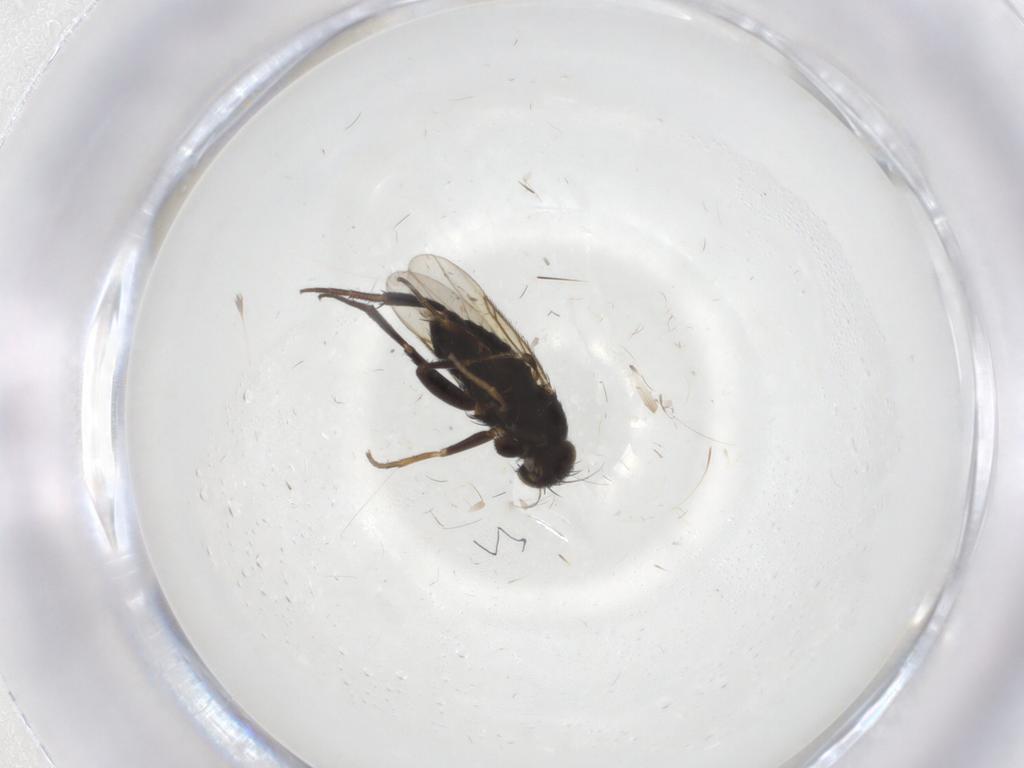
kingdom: Animalia
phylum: Arthropoda
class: Insecta
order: Diptera
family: Phoridae
